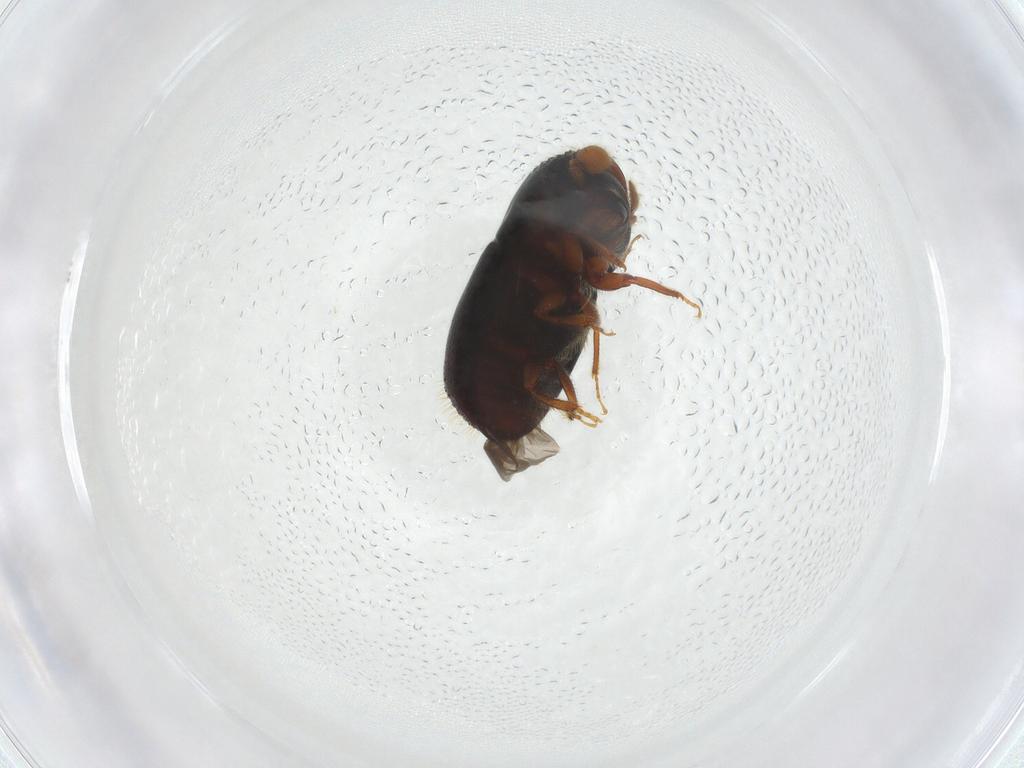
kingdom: Animalia
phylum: Arthropoda
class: Insecta
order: Coleoptera
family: Curculionidae
